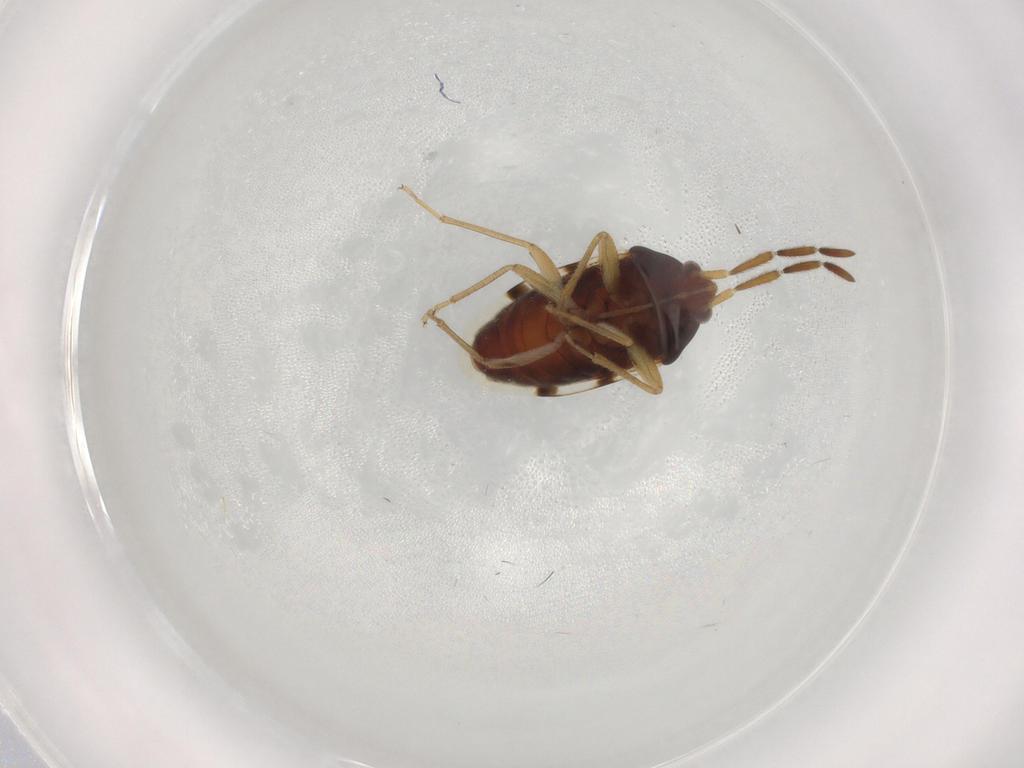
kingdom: Animalia
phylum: Arthropoda
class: Insecta
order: Hemiptera
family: Rhyparochromidae
